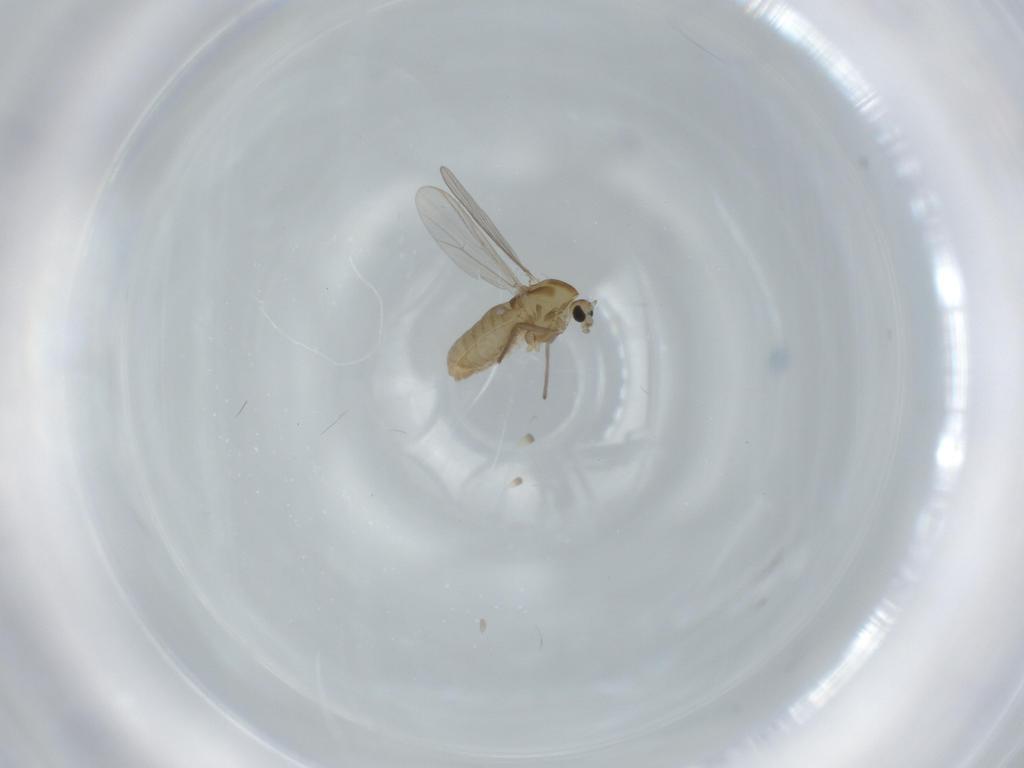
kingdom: Animalia
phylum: Arthropoda
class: Insecta
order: Diptera
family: Chironomidae
